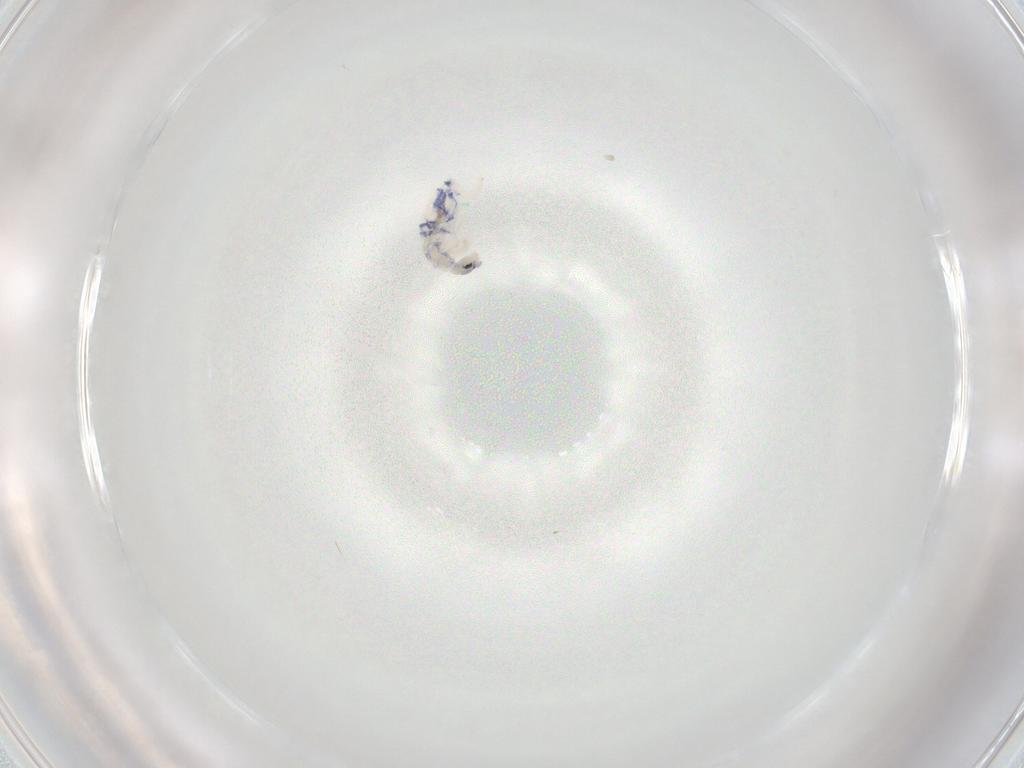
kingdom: Animalia
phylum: Arthropoda
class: Collembola
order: Entomobryomorpha
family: Entomobryidae
